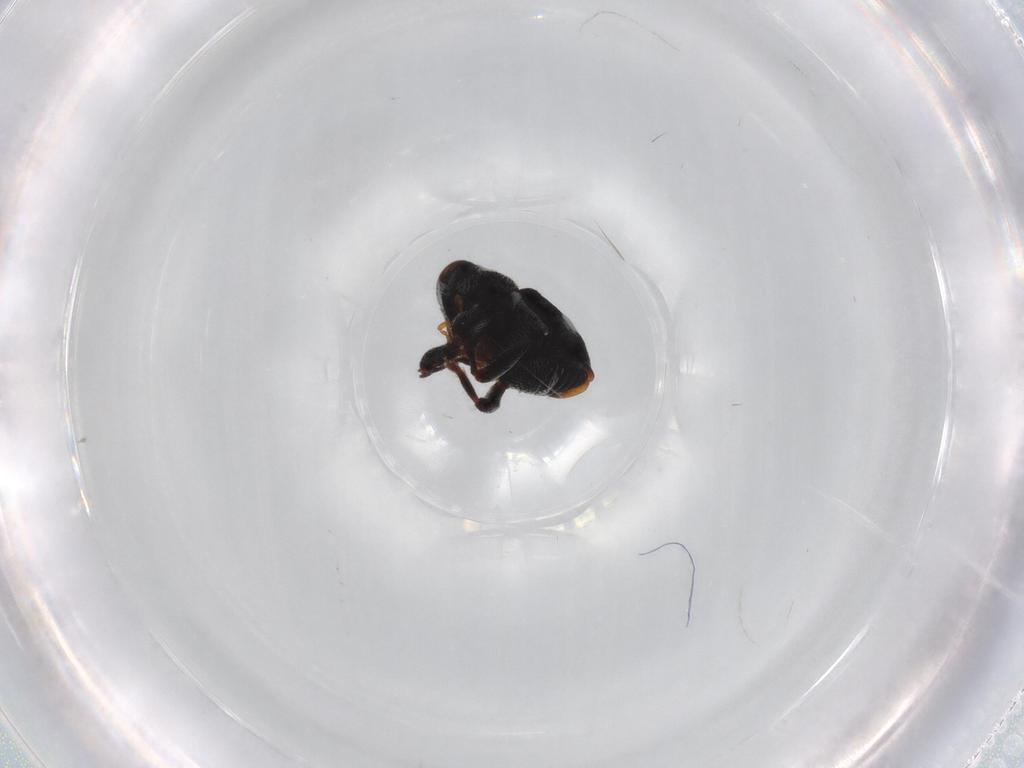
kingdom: Animalia
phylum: Arthropoda
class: Insecta
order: Coleoptera
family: Curculionidae
